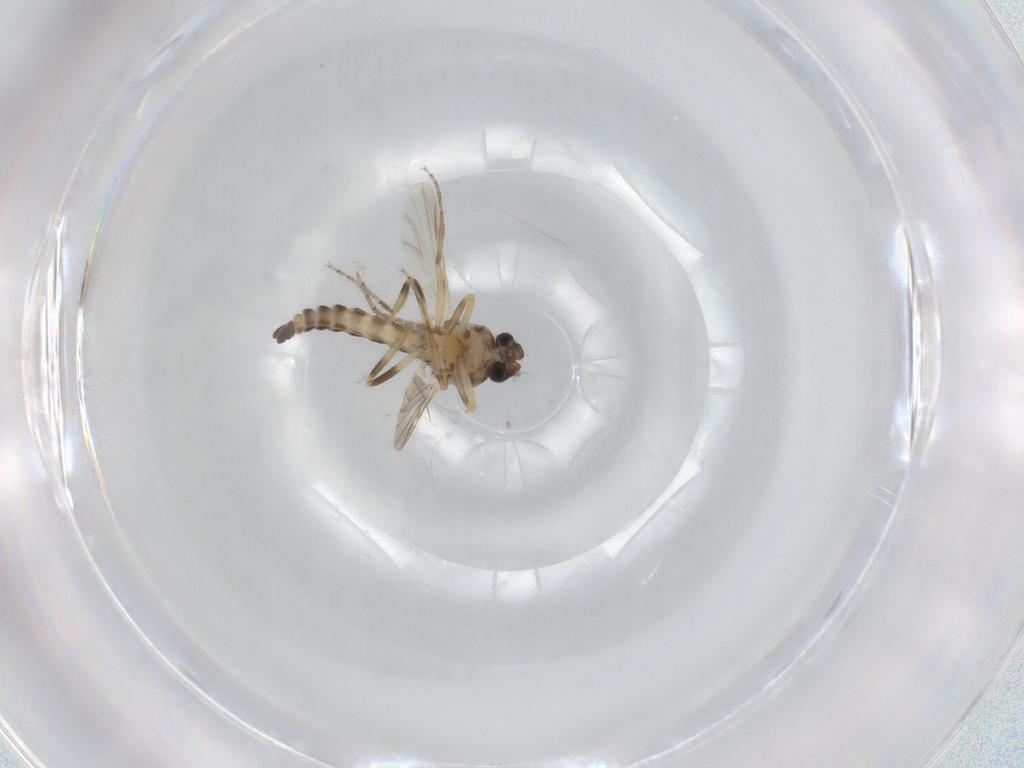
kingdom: Animalia
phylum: Arthropoda
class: Insecta
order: Diptera
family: Ceratopogonidae
